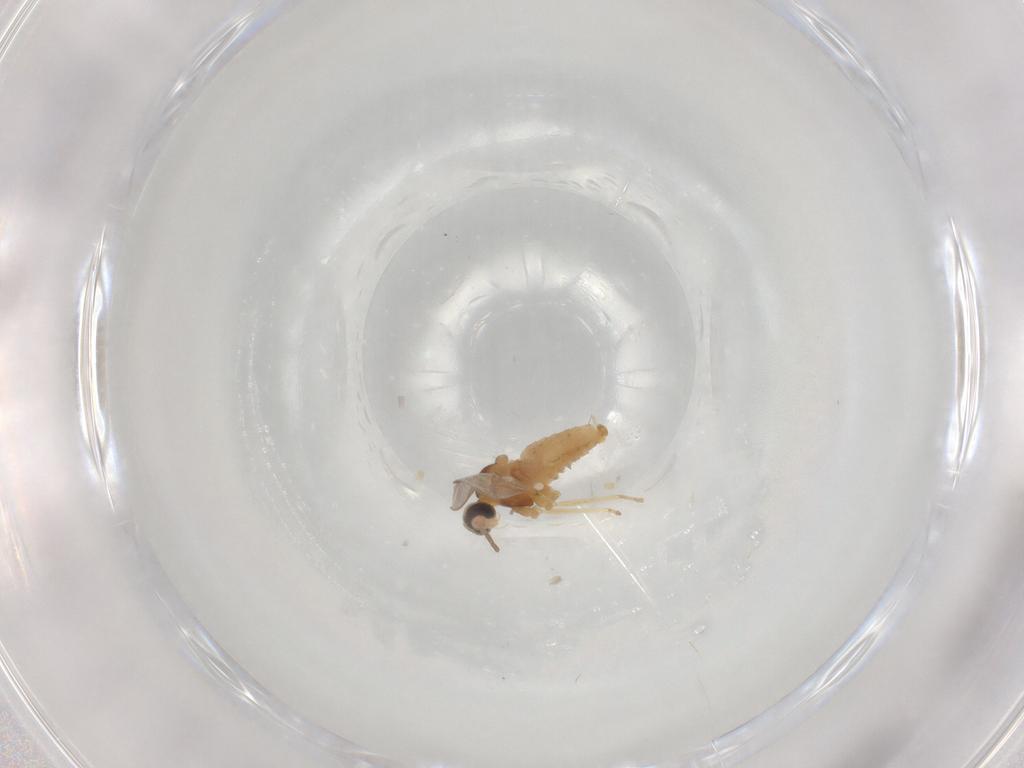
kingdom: Animalia
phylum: Arthropoda
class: Insecta
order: Diptera
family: Cecidomyiidae
